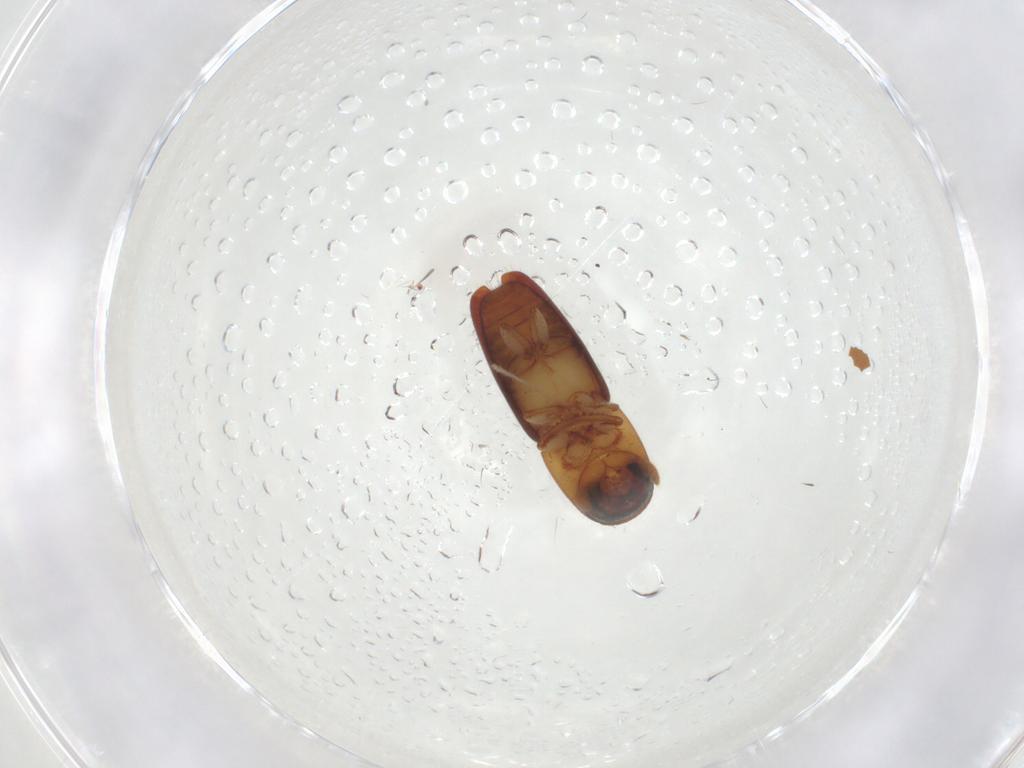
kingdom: Animalia
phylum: Arthropoda
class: Insecta
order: Coleoptera
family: Curculionidae
